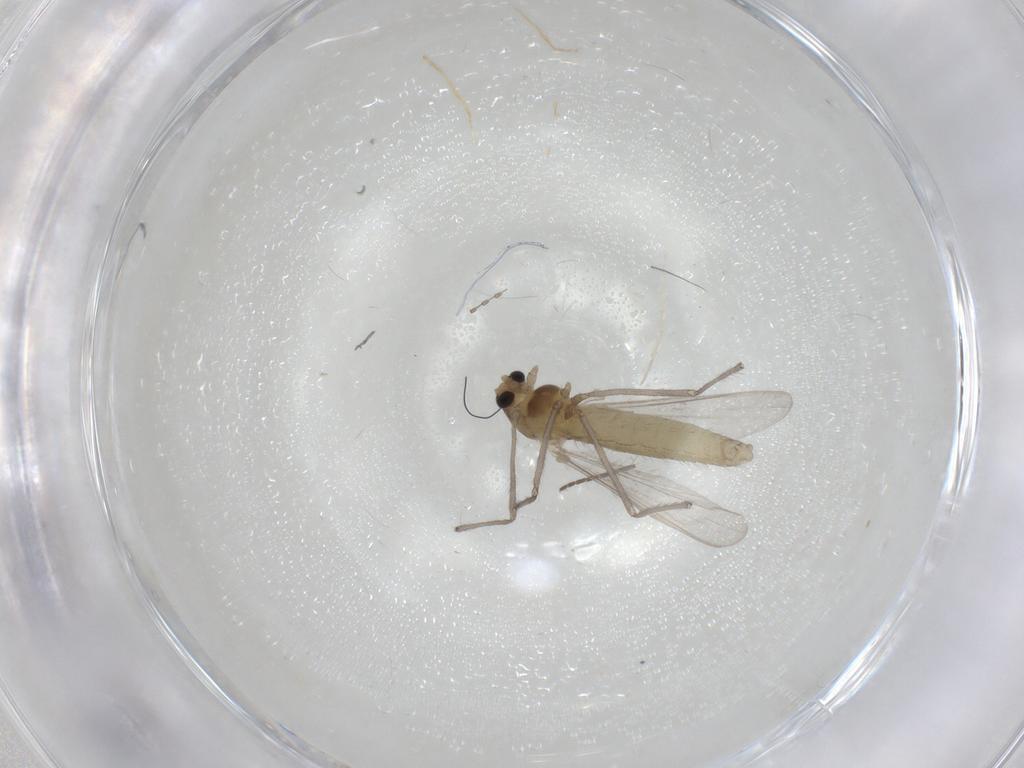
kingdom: Animalia
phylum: Arthropoda
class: Insecta
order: Diptera
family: Chironomidae
